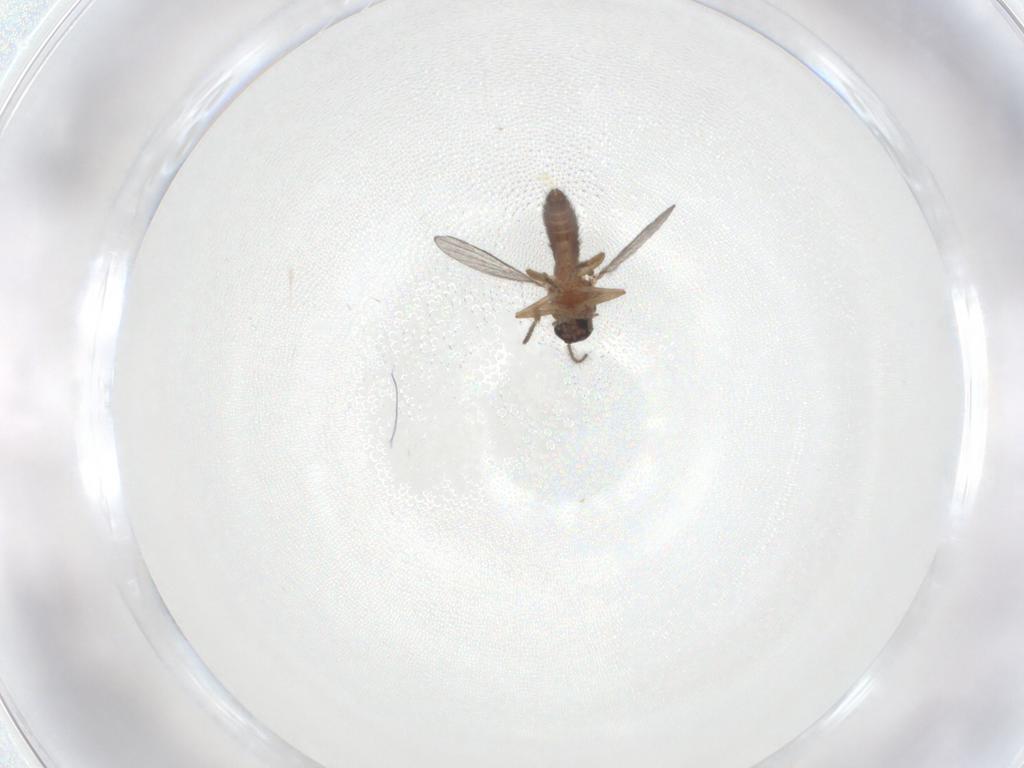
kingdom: Animalia
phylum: Arthropoda
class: Insecta
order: Diptera
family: Ceratopogonidae
